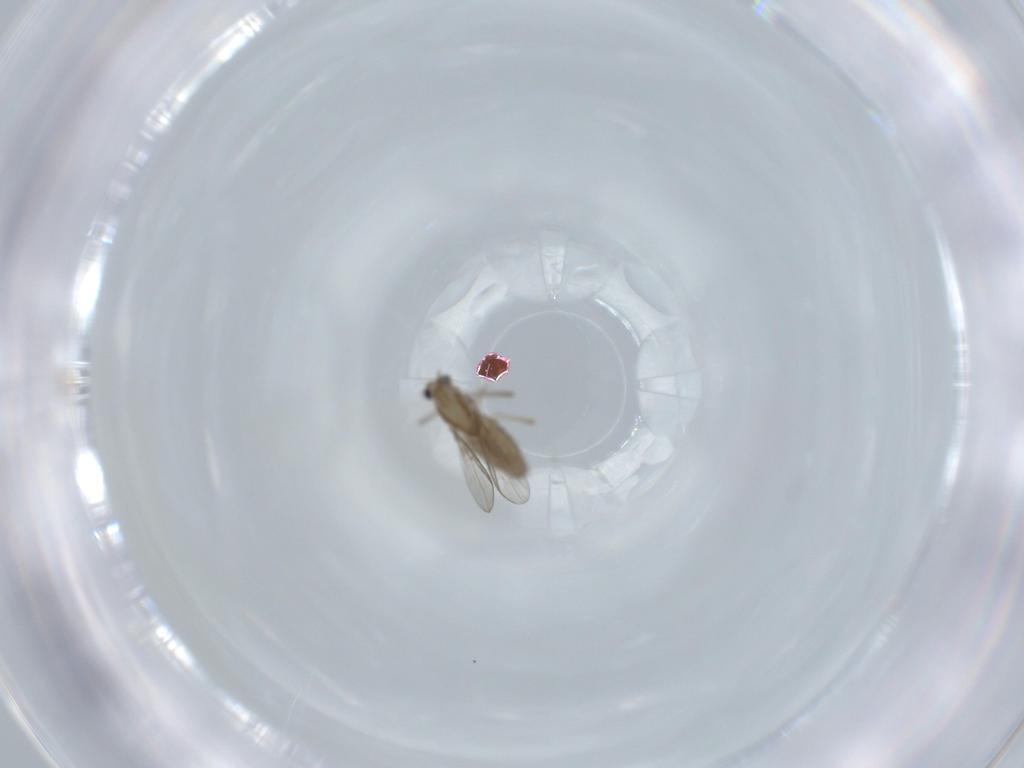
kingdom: Animalia
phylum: Arthropoda
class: Insecta
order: Diptera
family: Chironomidae
